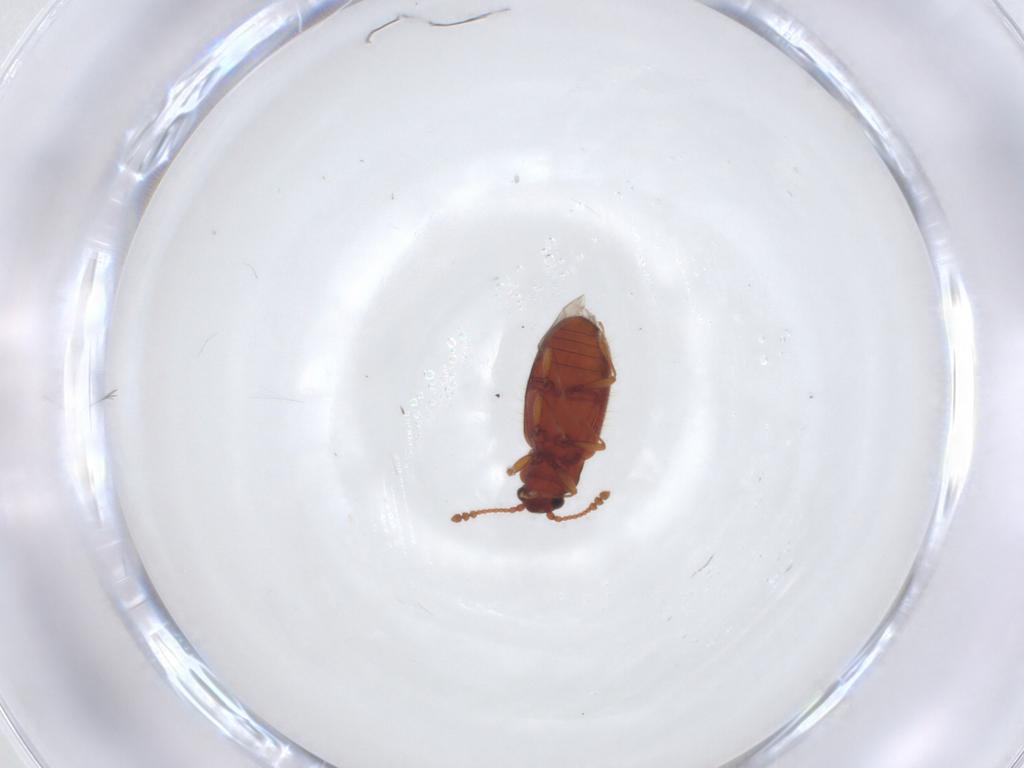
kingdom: Animalia
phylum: Arthropoda
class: Insecta
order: Coleoptera
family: Cryptophagidae
